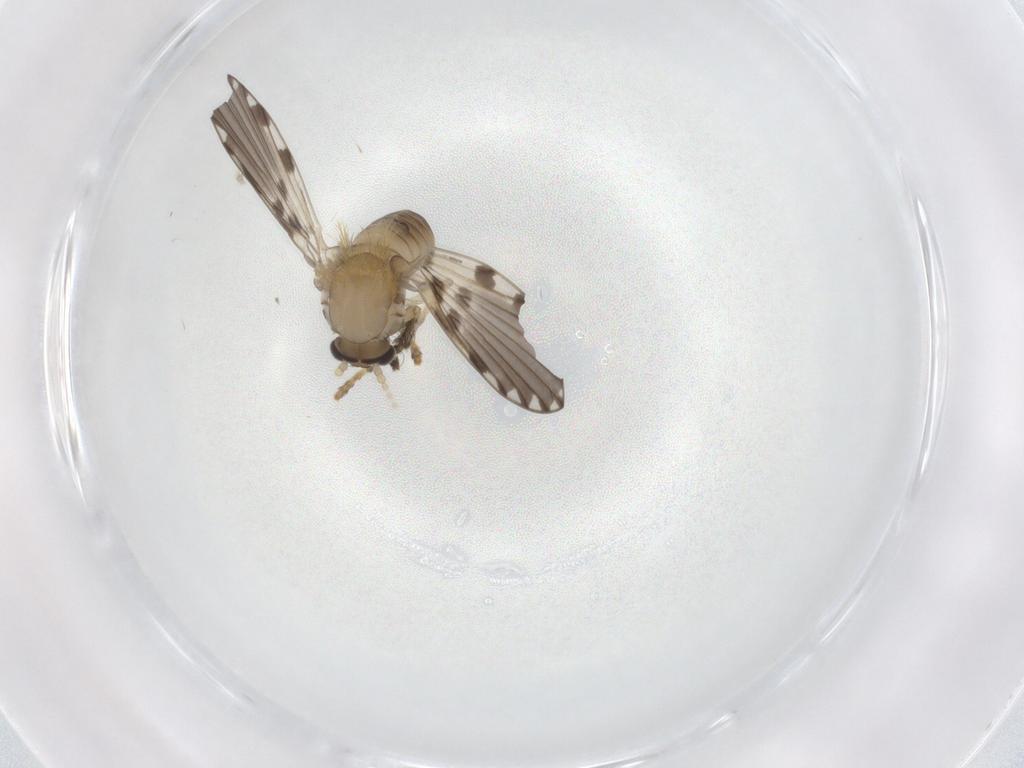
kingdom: Animalia
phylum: Arthropoda
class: Insecta
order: Diptera
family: Psychodidae
